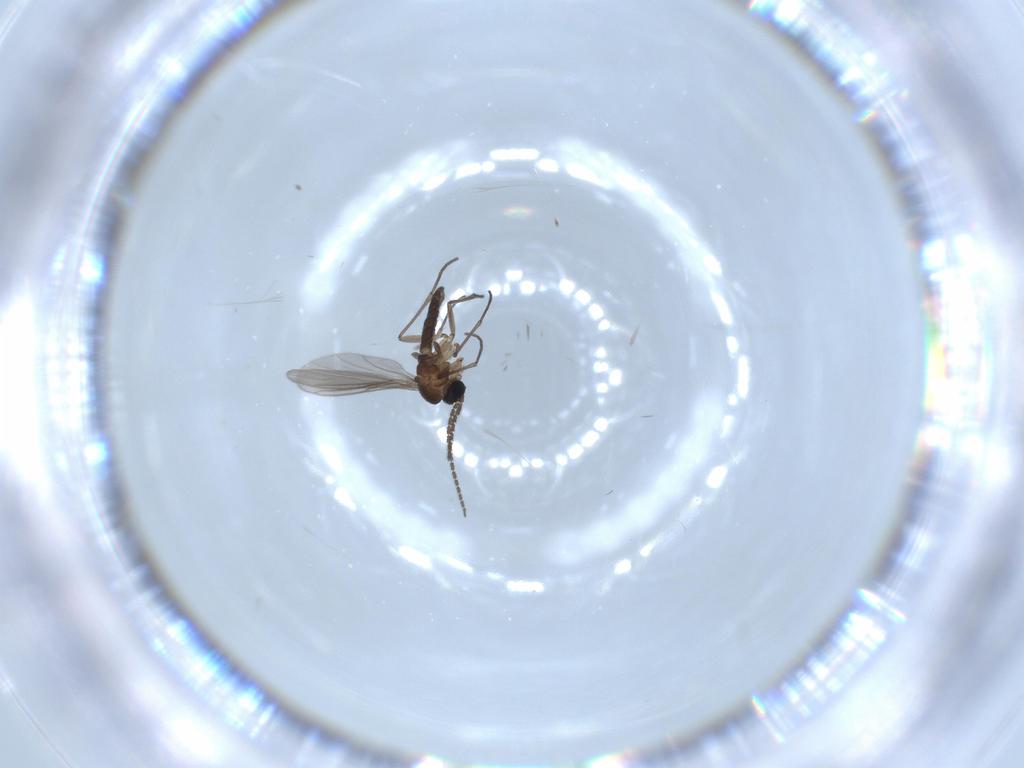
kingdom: Animalia
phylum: Arthropoda
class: Insecta
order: Diptera
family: Sciaridae
